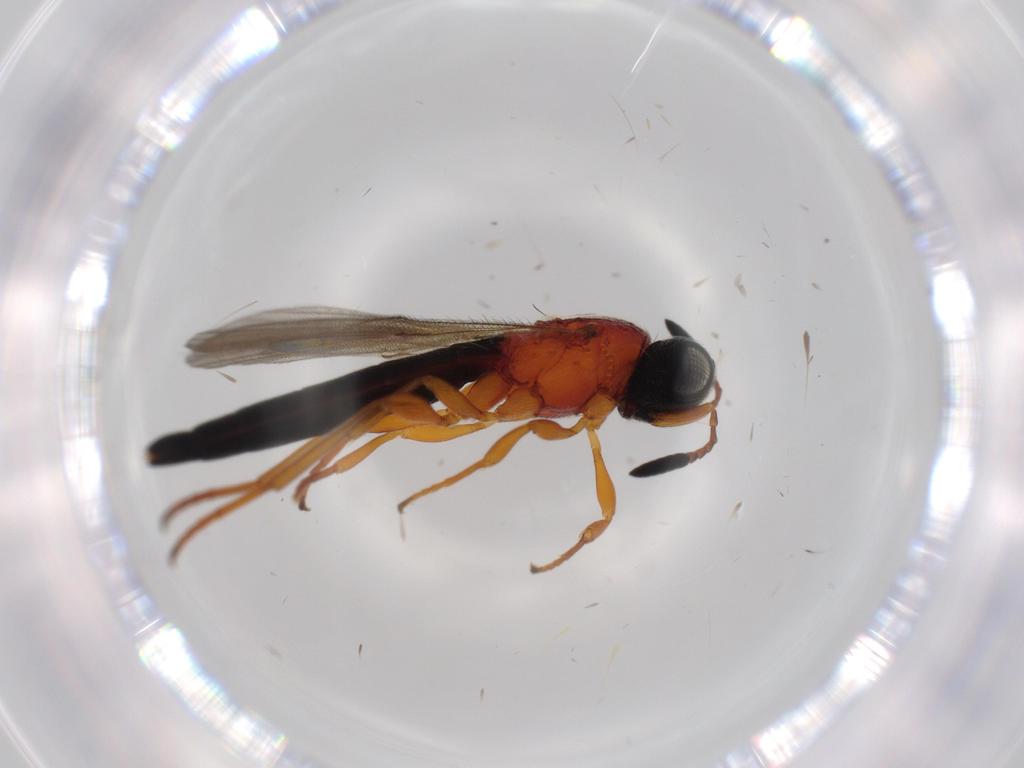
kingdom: Animalia
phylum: Arthropoda
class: Insecta
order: Hymenoptera
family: Scelionidae
